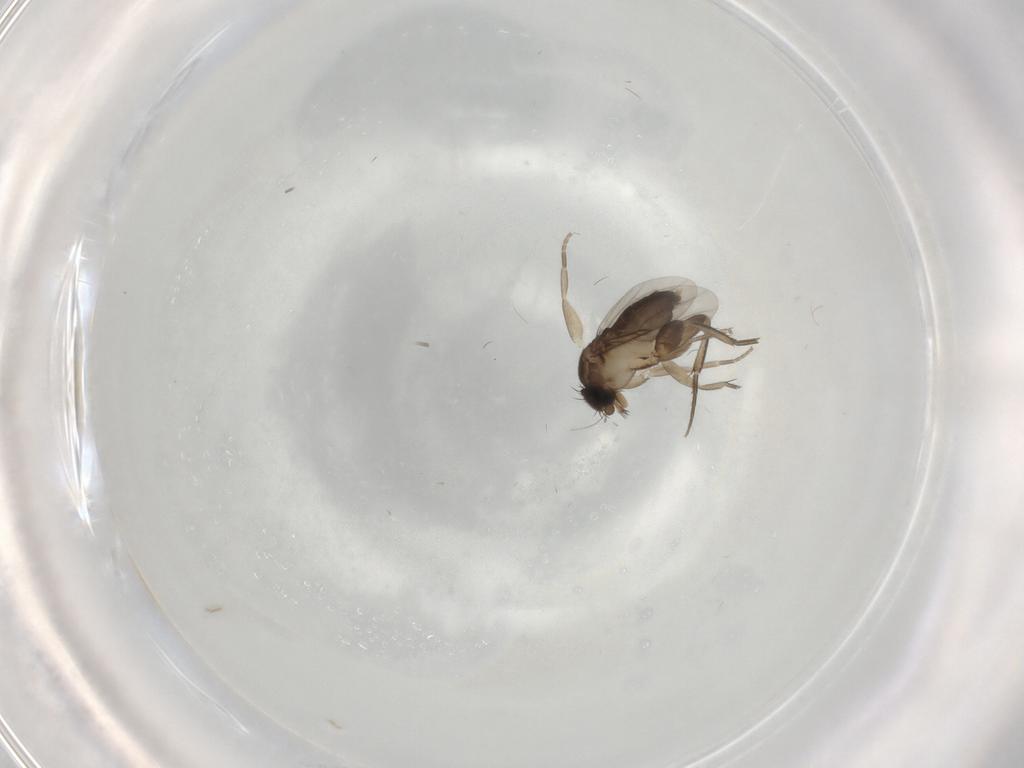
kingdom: Animalia
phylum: Arthropoda
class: Insecta
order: Diptera
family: Phoridae
